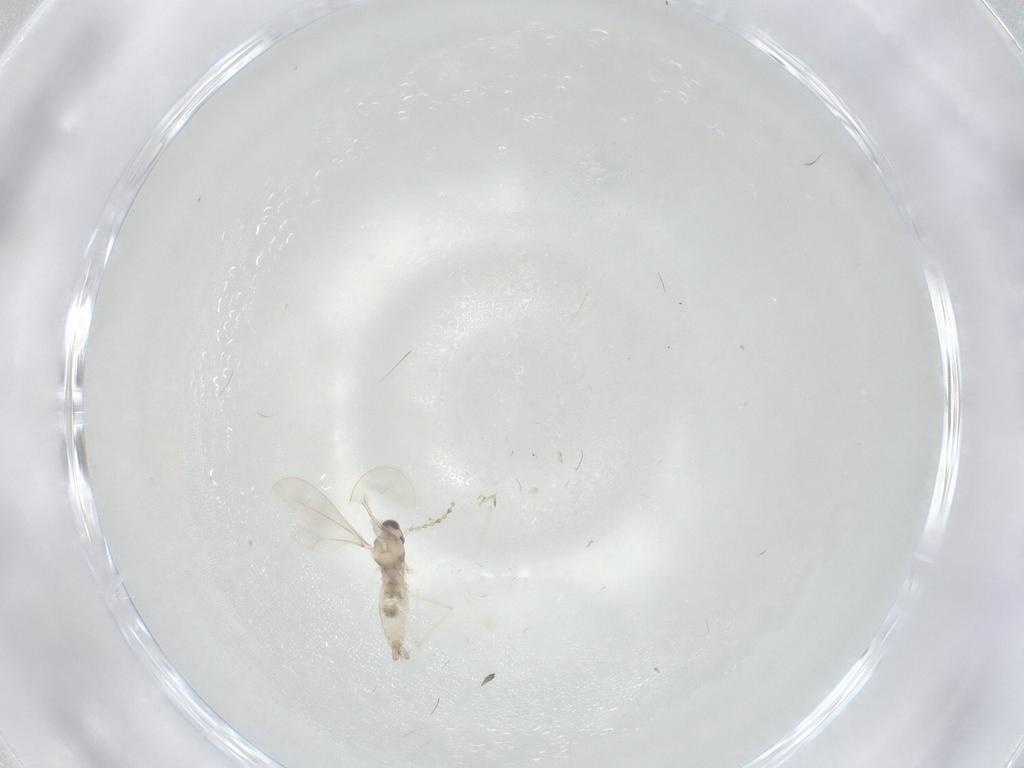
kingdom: Animalia
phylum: Arthropoda
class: Insecta
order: Diptera
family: Cecidomyiidae
